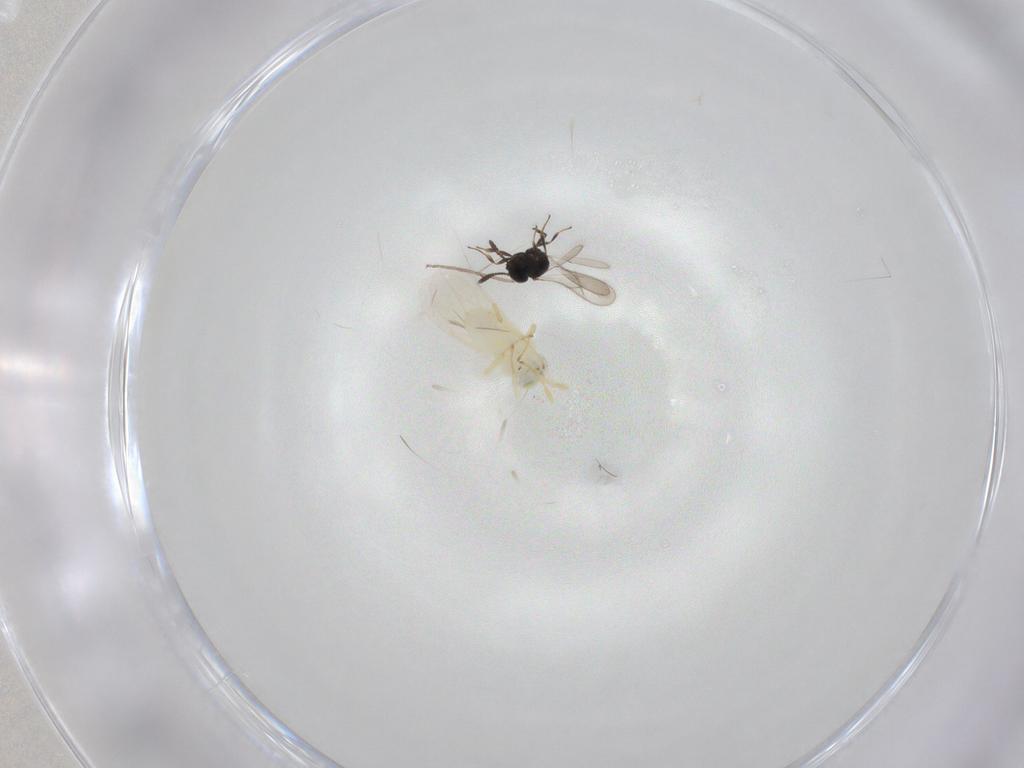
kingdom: Animalia
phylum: Arthropoda
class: Insecta
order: Hymenoptera
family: Aphelinidae
